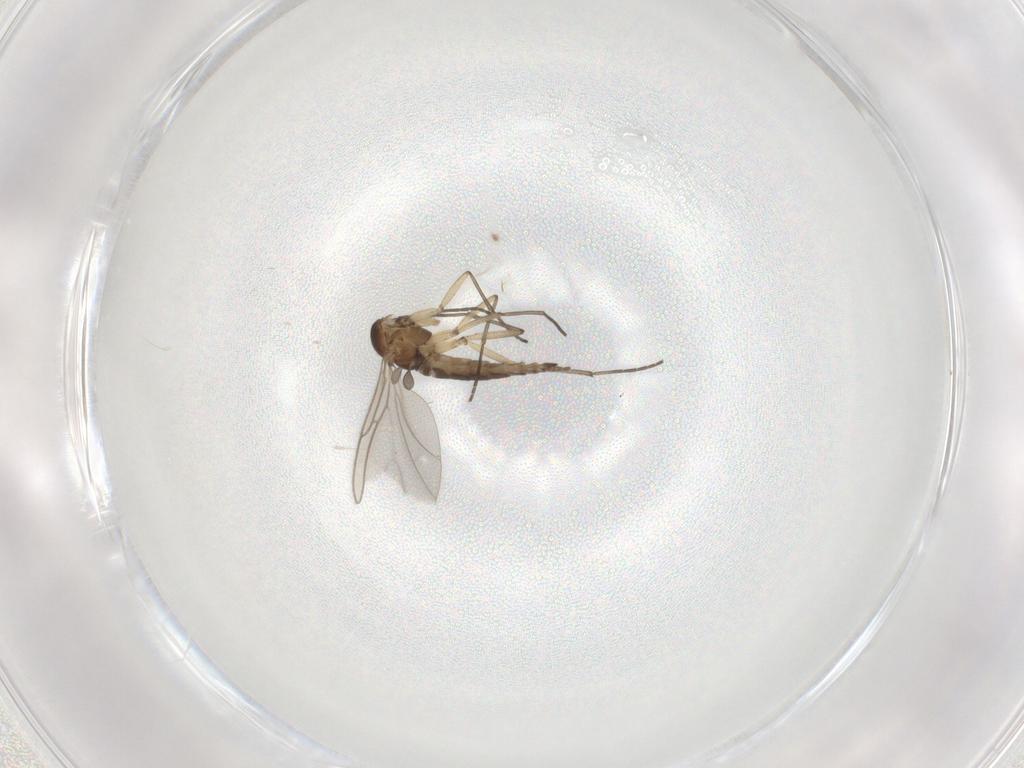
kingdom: Animalia
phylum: Arthropoda
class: Insecta
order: Diptera
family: Sciaridae
